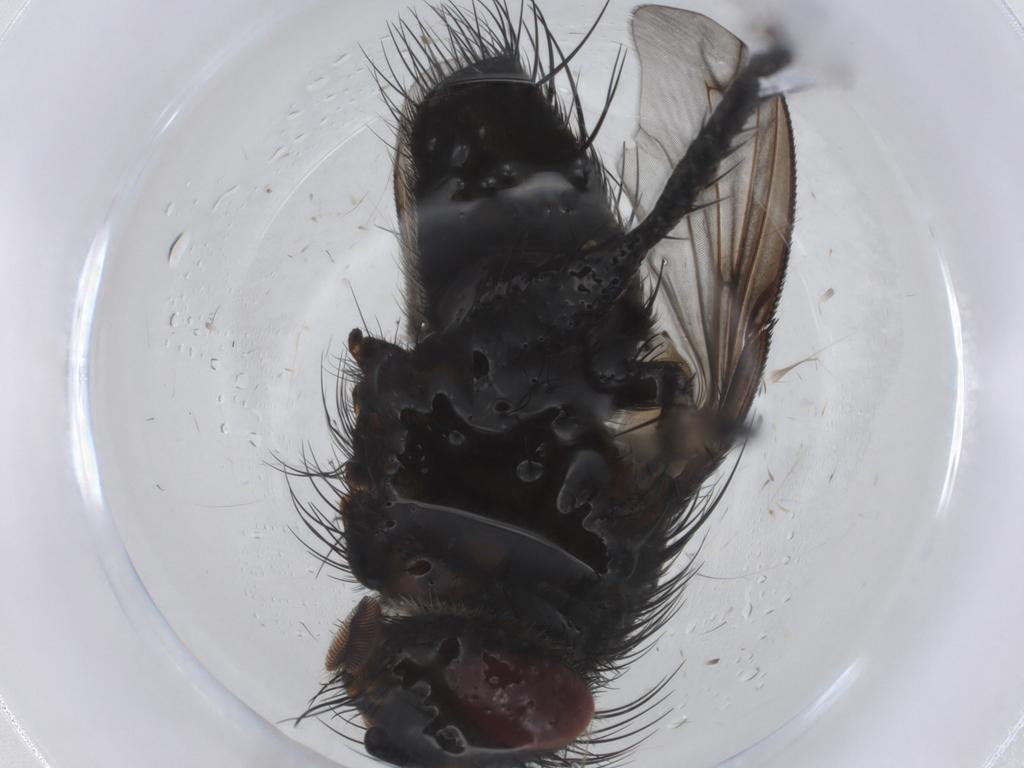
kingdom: Animalia
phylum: Arthropoda
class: Insecta
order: Diptera
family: Tachinidae
